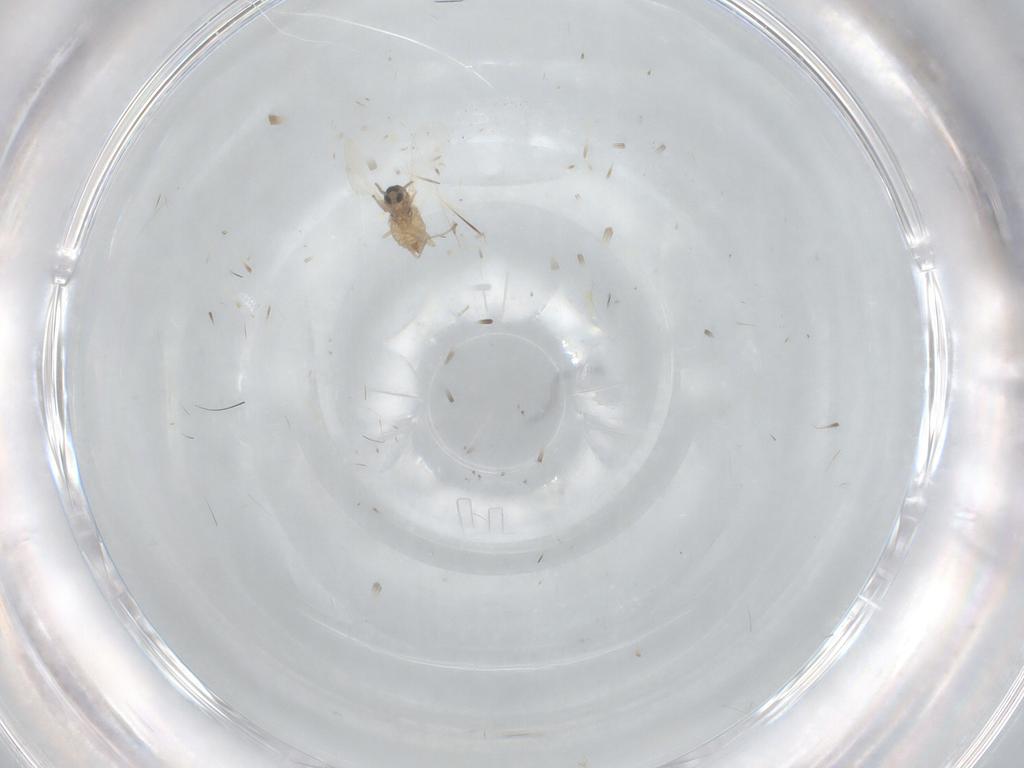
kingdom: Animalia
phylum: Arthropoda
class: Insecta
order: Diptera
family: Cecidomyiidae
